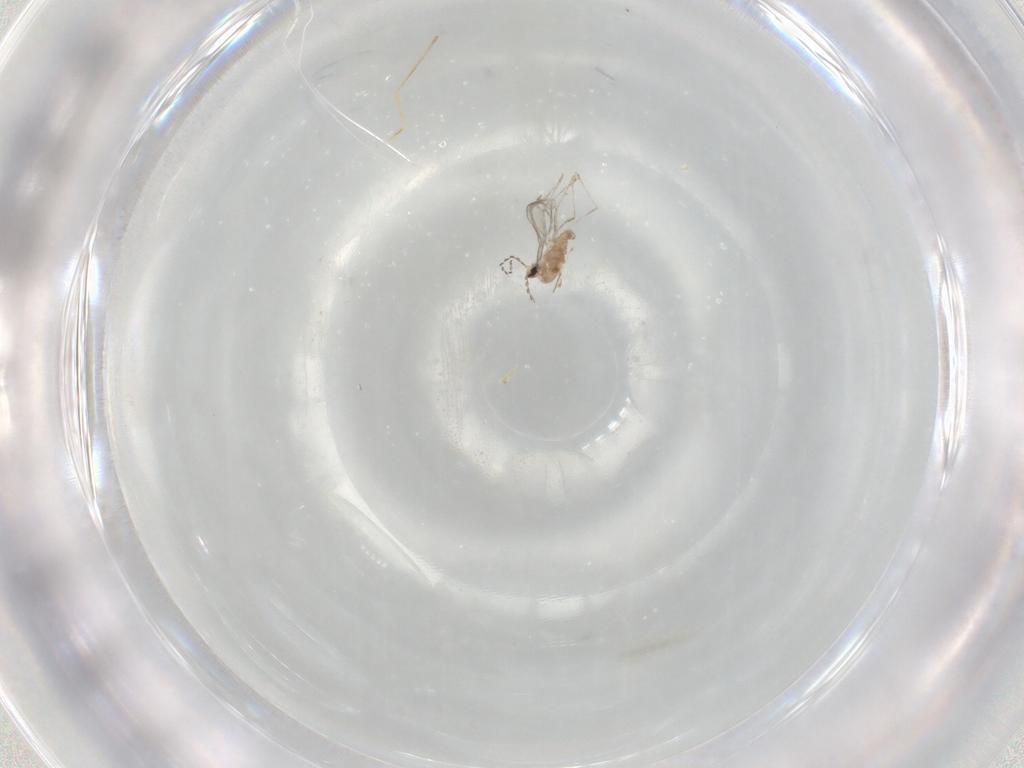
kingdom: Animalia
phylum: Arthropoda
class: Insecta
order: Diptera
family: Cecidomyiidae
